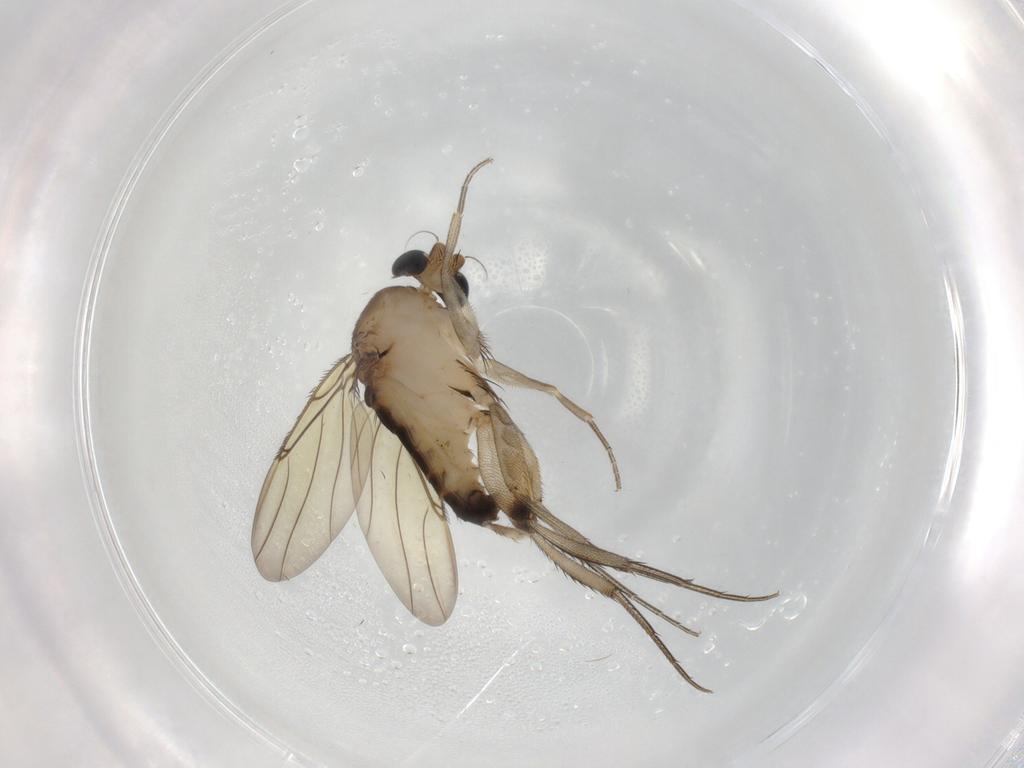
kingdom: Animalia
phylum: Arthropoda
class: Insecta
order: Diptera
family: Phoridae
